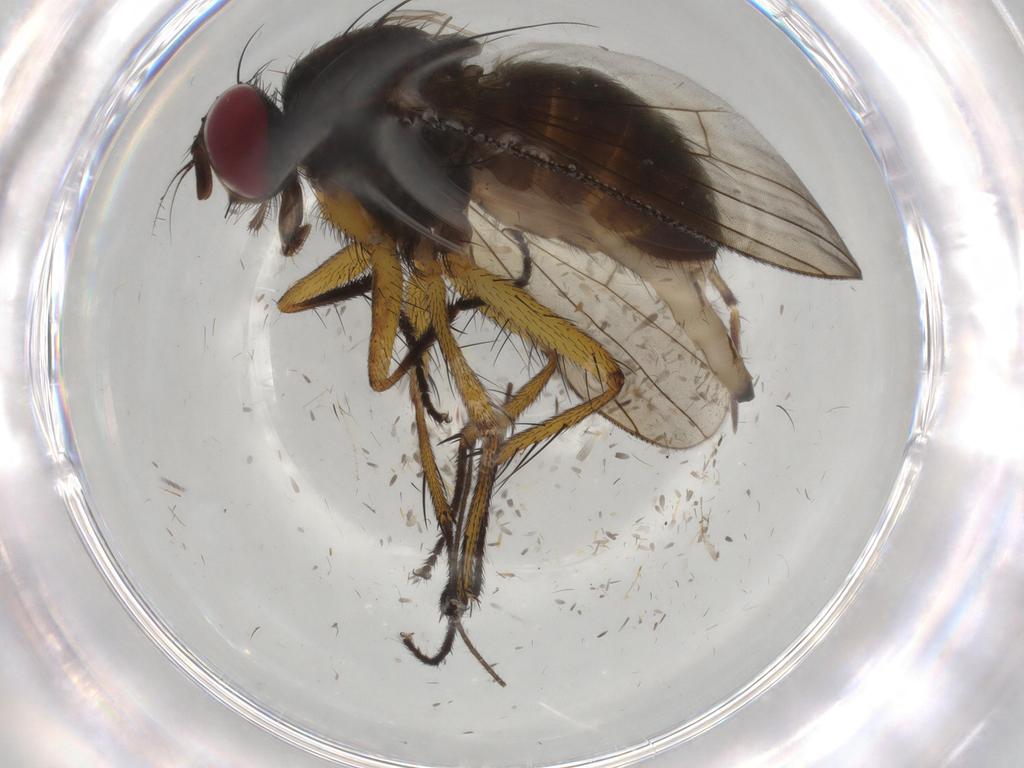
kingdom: Animalia
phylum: Arthropoda
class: Insecta
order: Diptera
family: Muscidae
